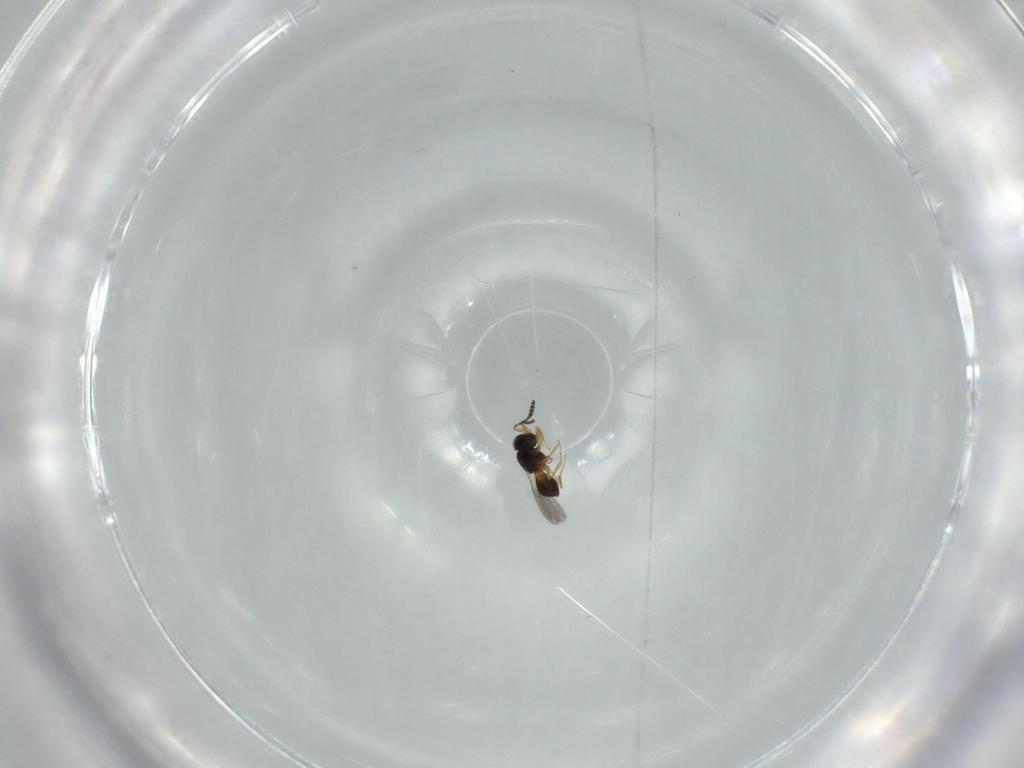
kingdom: Animalia
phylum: Arthropoda
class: Insecta
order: Hymenoptera
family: Scelionidae
